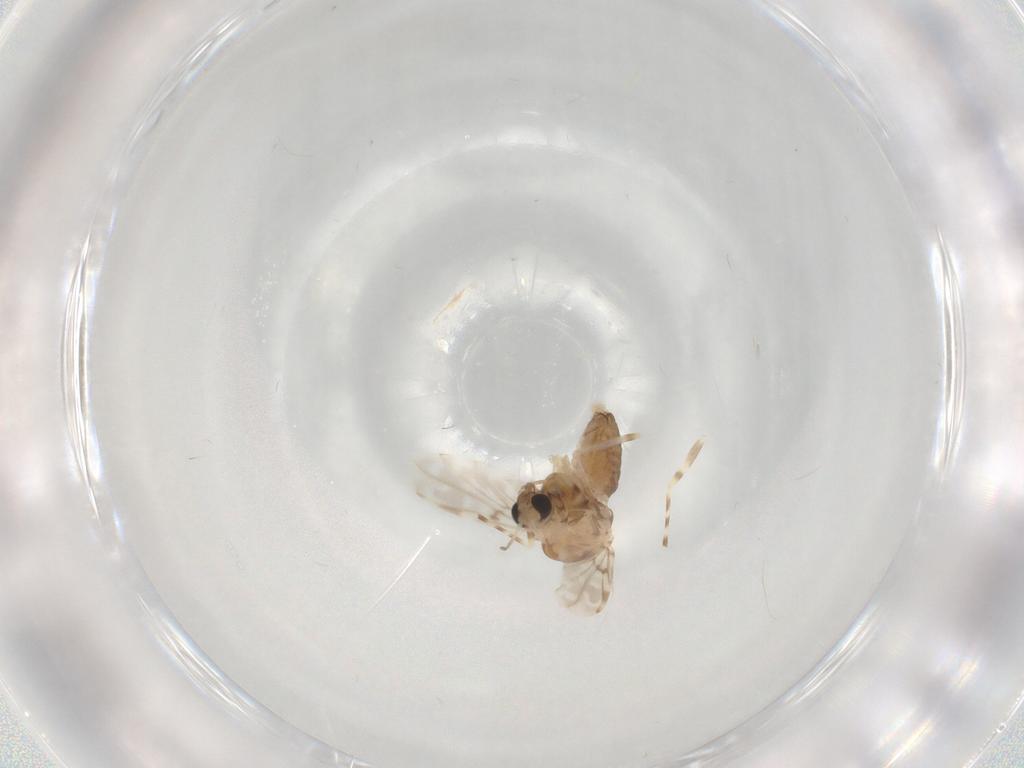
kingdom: Animalia
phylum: Arthropoda
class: Insecta
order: Diptera
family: Chironomidae
